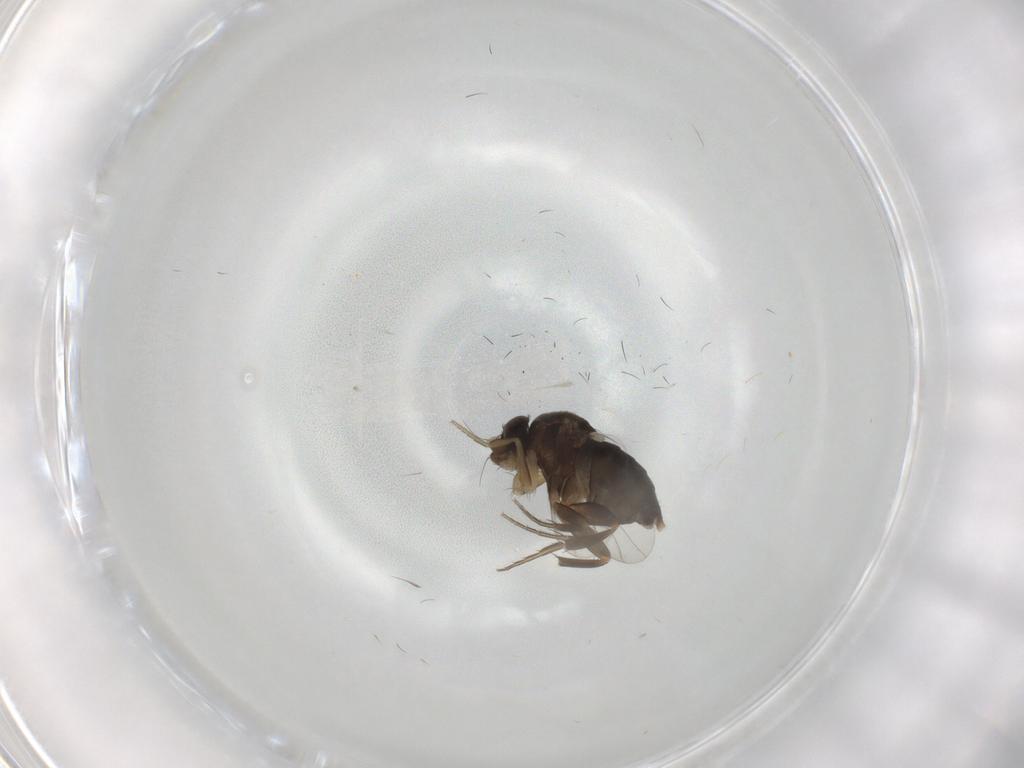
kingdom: Animalia
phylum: Arthropoda
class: Insecta
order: Diptera
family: Phoridae
